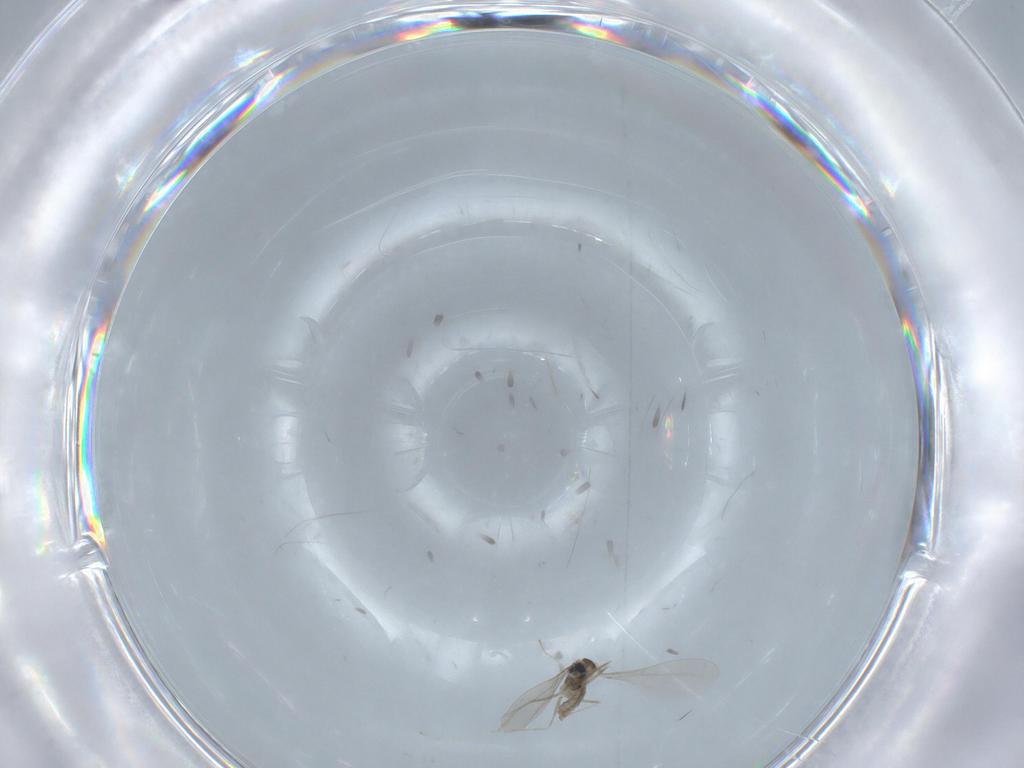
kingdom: Animalia
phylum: Arthropoda
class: Insecta
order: Diptera
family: Cecidomyiidae
